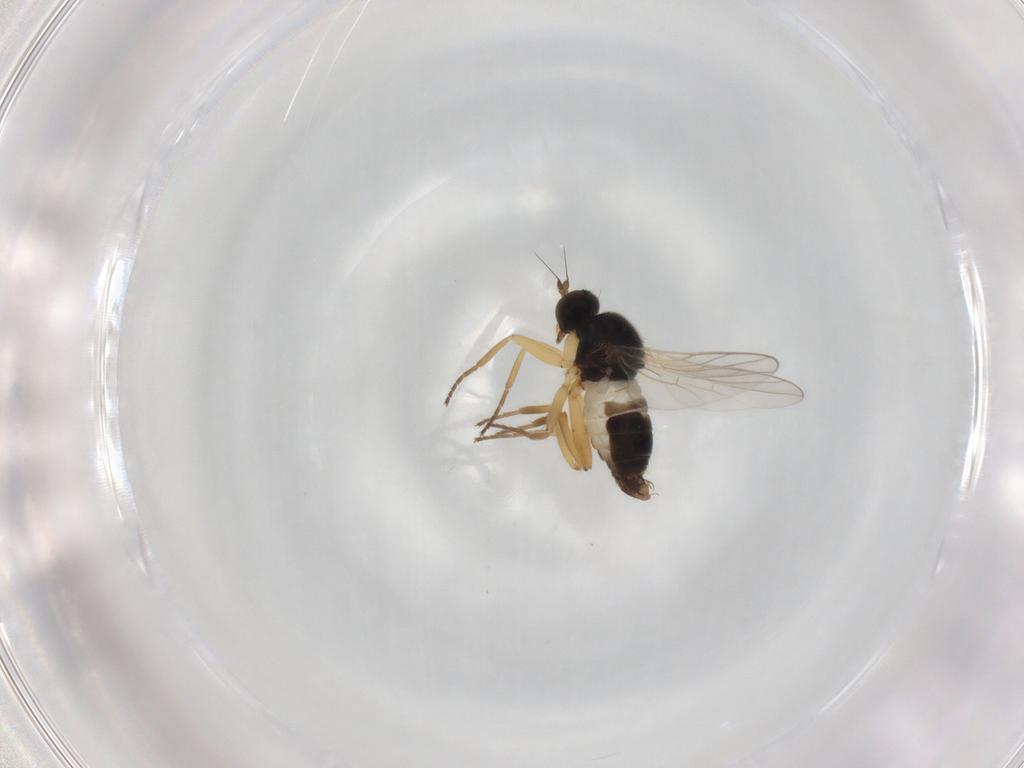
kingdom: Animalia
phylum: Arthropoda
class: Insecta
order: Diptera
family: Hybotidae
